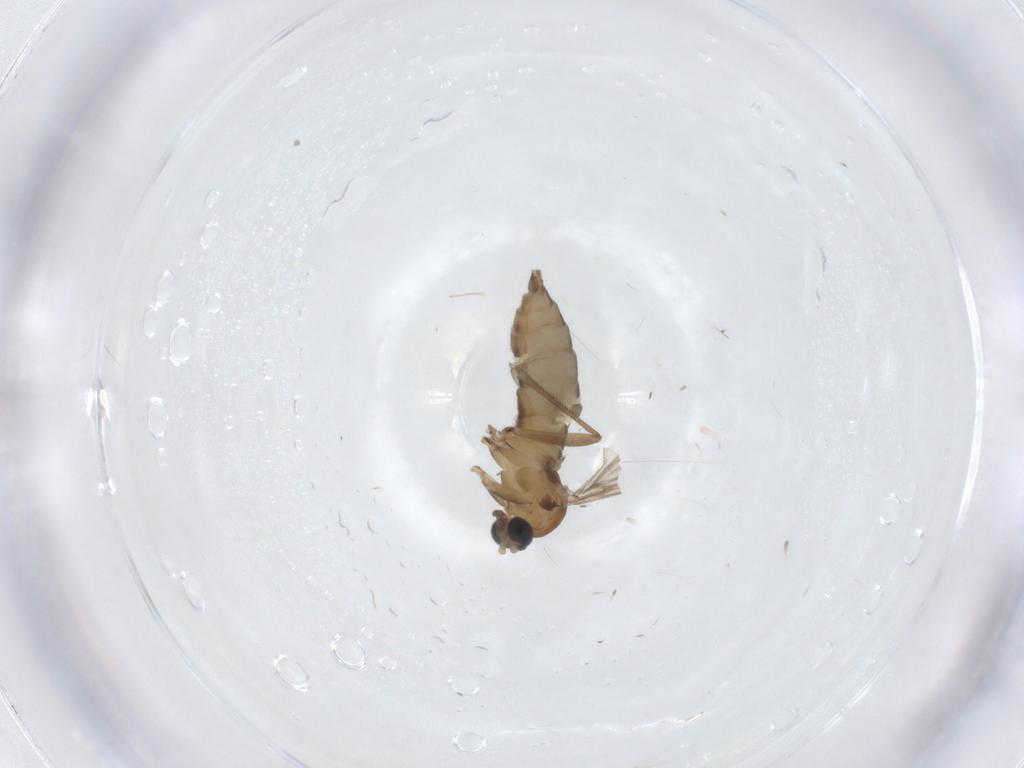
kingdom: Animalia
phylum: Arthropoda
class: Insecta
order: Diptera
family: Sciaridae
